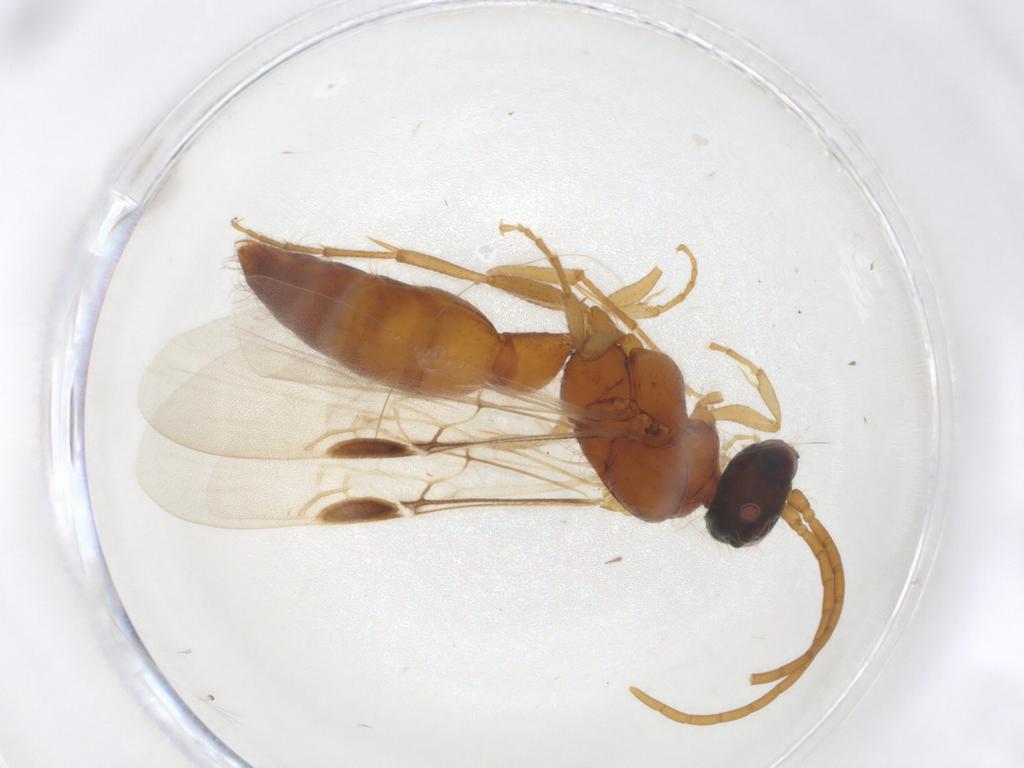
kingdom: Animalia
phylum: Arthropoda
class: Insecta
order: Hymenoptera
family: Tiphiidae
